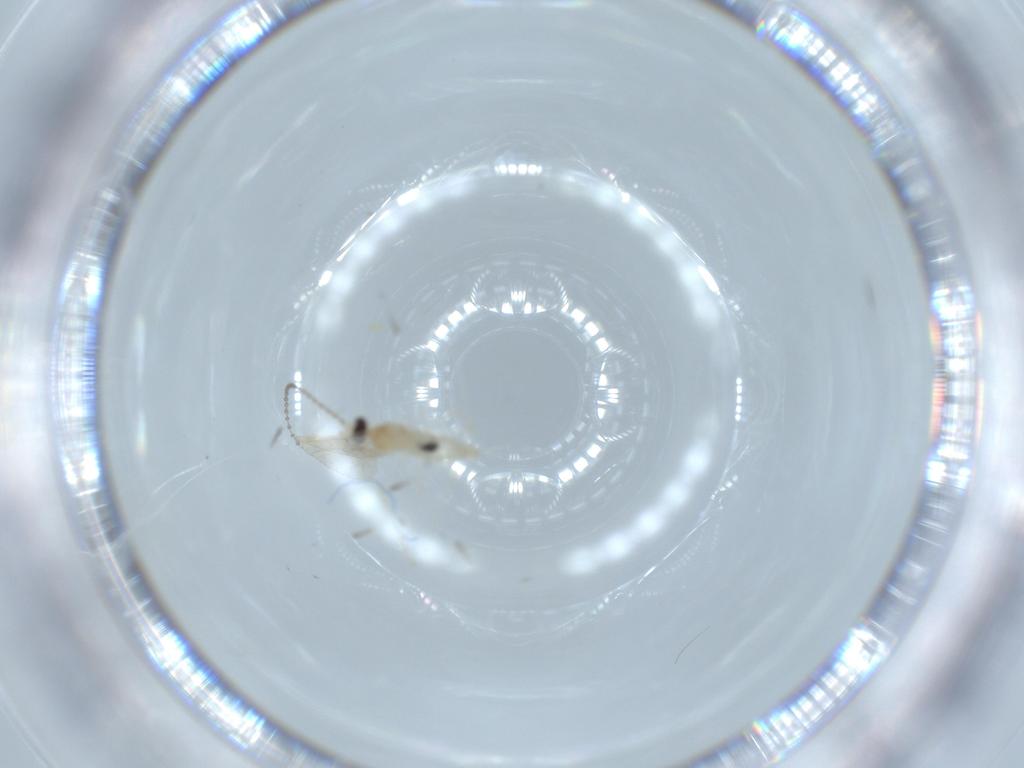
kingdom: Animalia
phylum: Arthropoda
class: Insecta
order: Diptera
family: Cecidomyiidae
